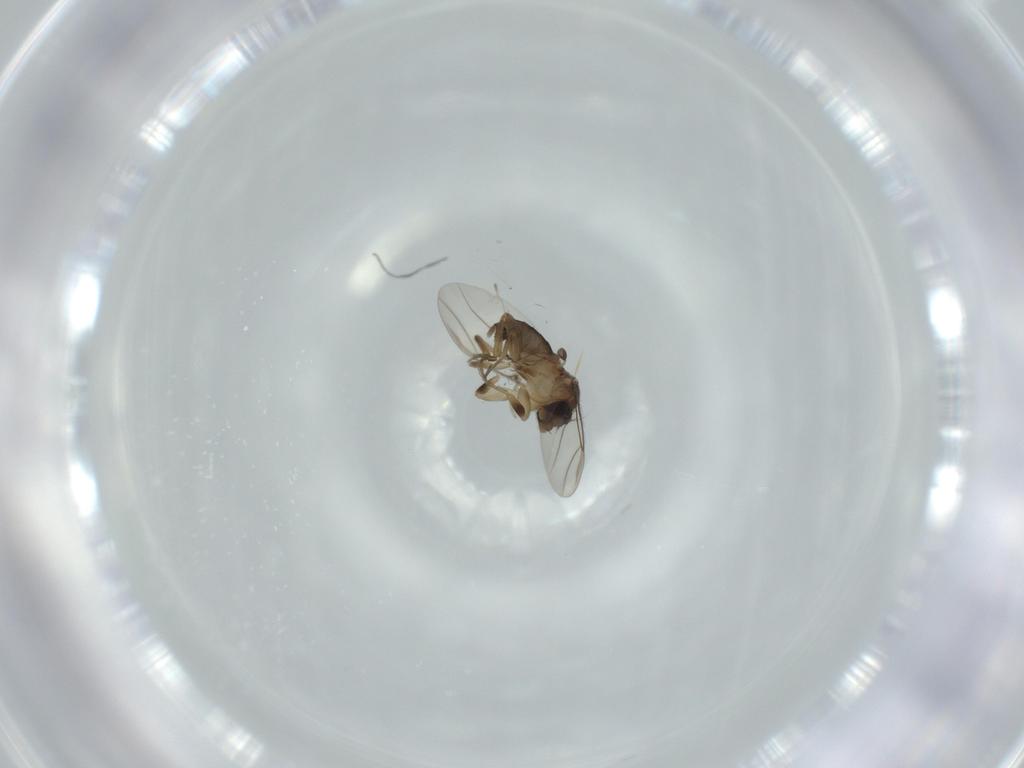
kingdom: Animalia
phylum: Arthropoda
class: Insecta
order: Diptera
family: Phoridae
